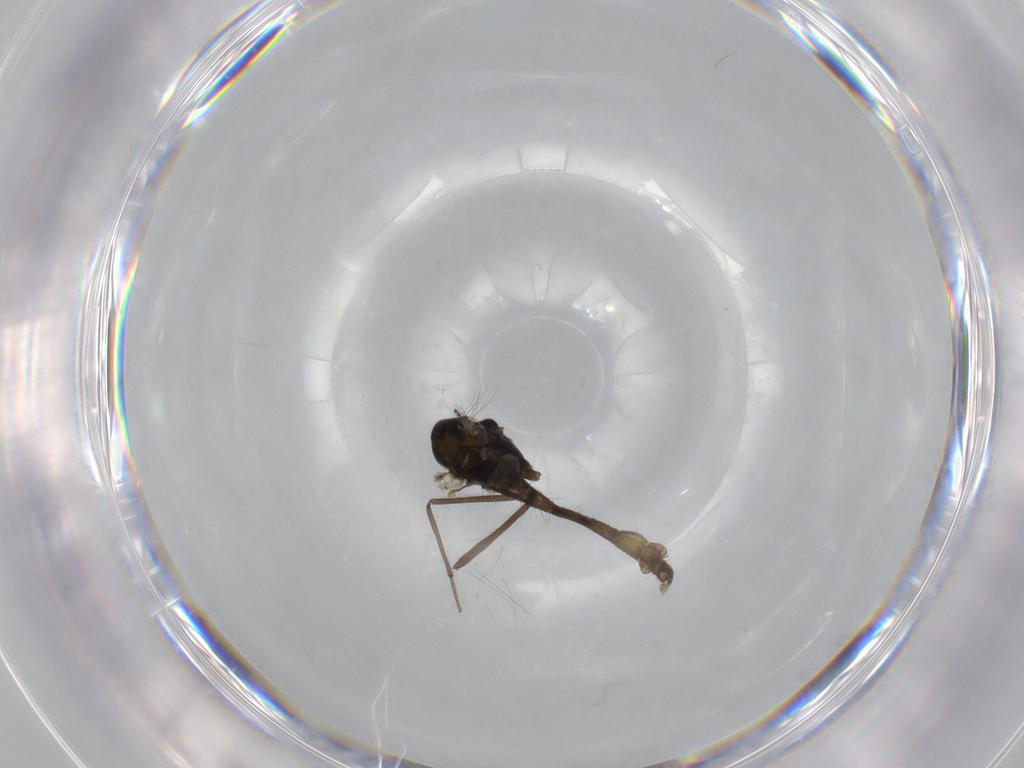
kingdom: Animalia
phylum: Arthropoda
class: Insecta
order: Diptera
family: Chironomidae
